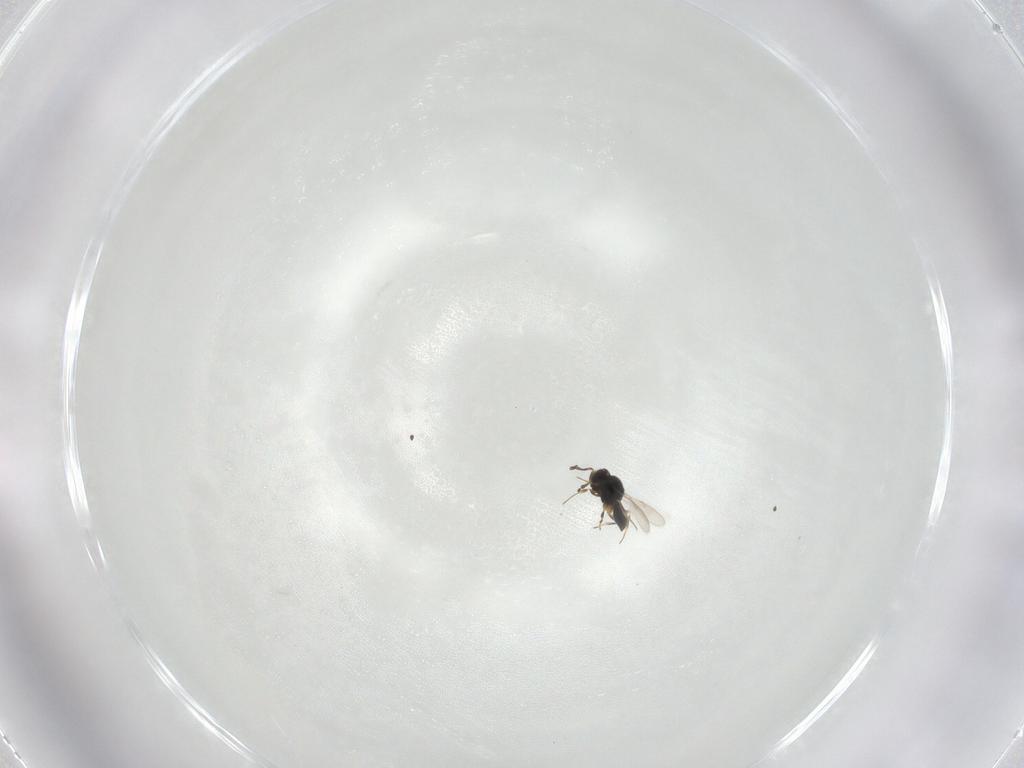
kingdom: Animalia
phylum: Arthropoda
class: Insecta
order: Hymenoptera
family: Scelionidae
